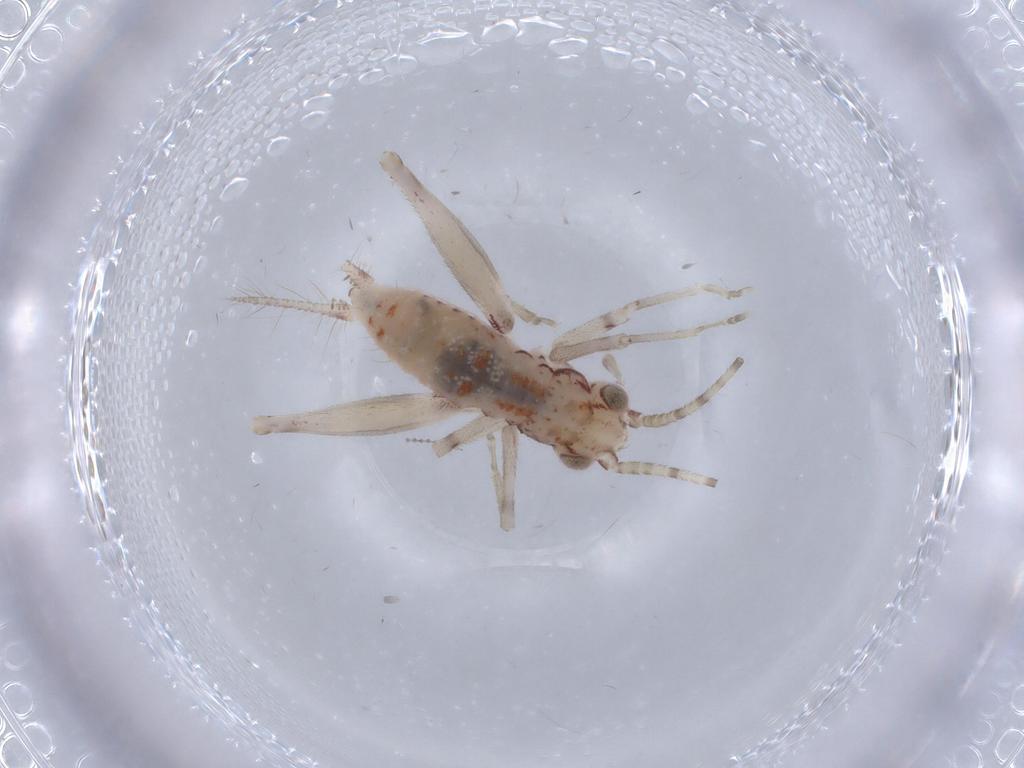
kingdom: Animalia
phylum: Arthropoda
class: Insecta
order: Orthoptera
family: Trigonidiidae
